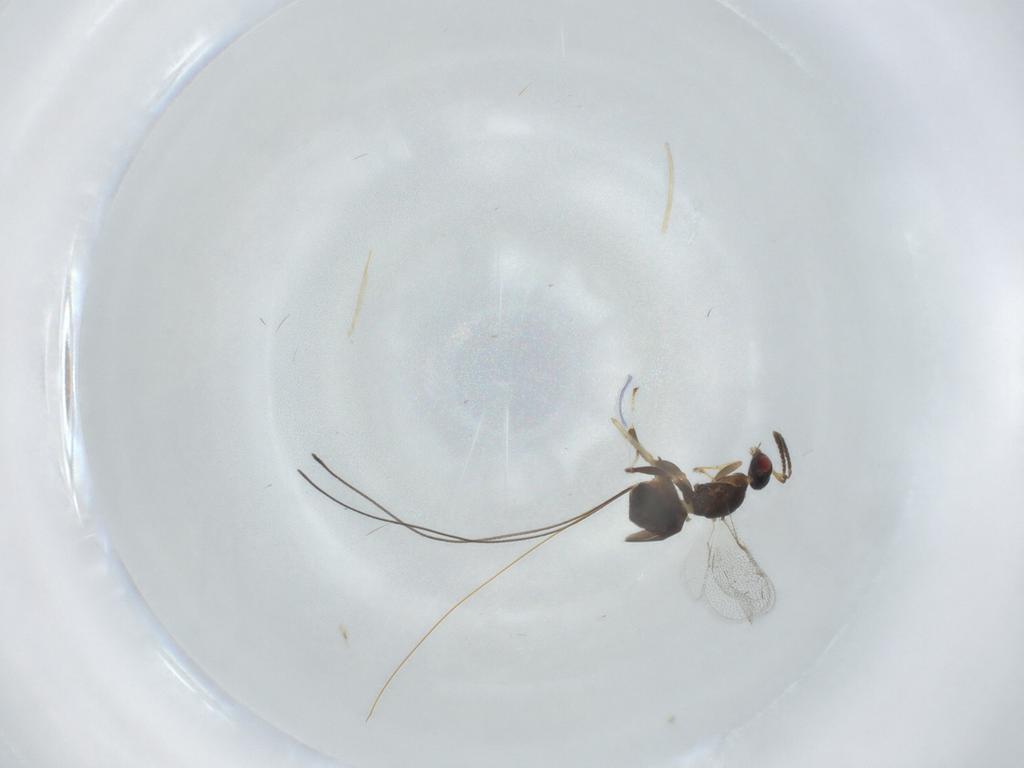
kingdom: Animalia
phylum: Arthropoda
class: Insecta
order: Hymenoptera
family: Torymidae
